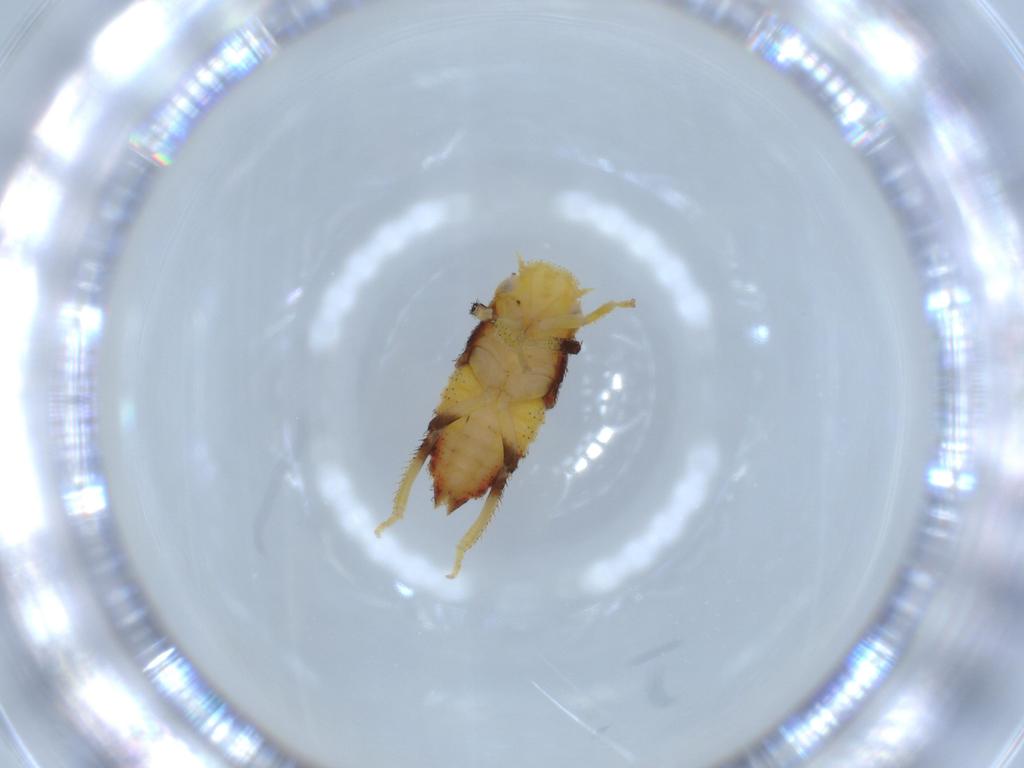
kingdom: Animalia
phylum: Arthropoda
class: Insecta
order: Hemiptera
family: Cicadellidae
